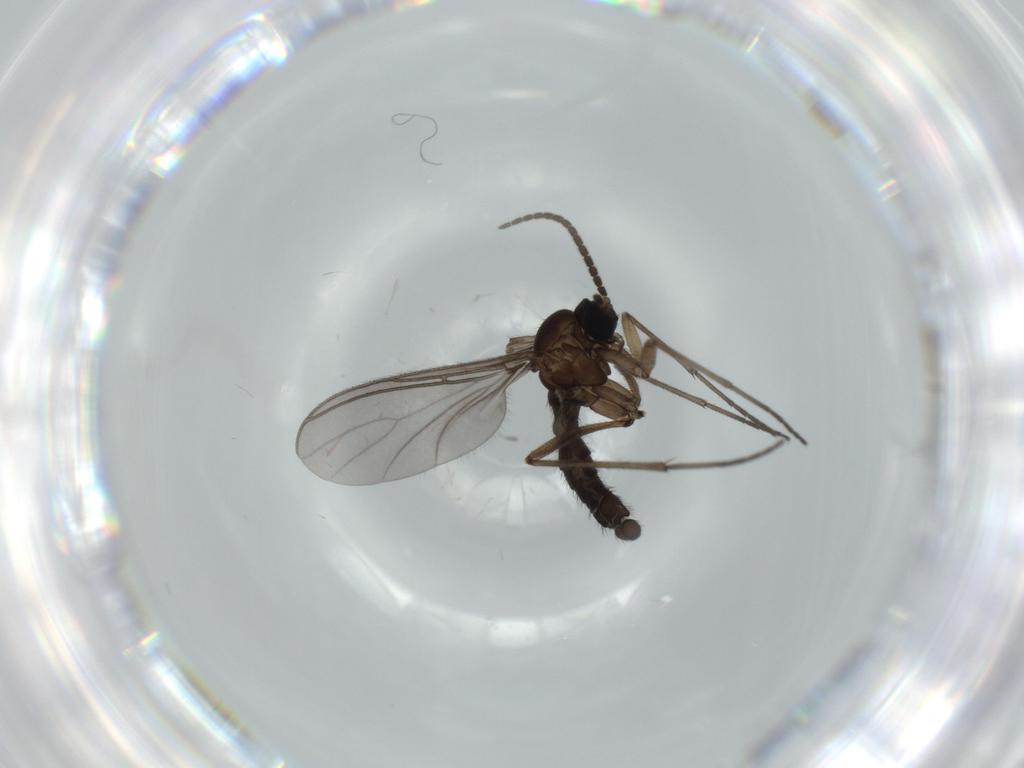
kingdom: Animalia
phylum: Arthropoda
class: Insecta
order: Diptera
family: Sciaridae
